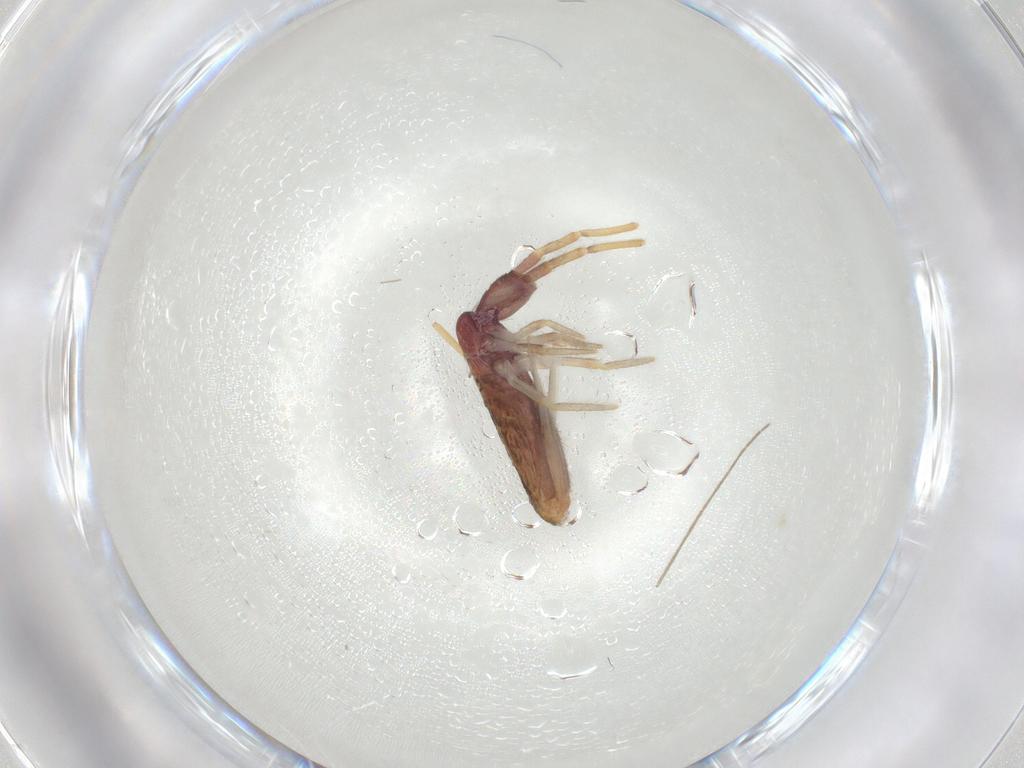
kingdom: Animalia
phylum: Arthropoda
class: Collembola
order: Entomobryomorpha
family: Entomobryidae
